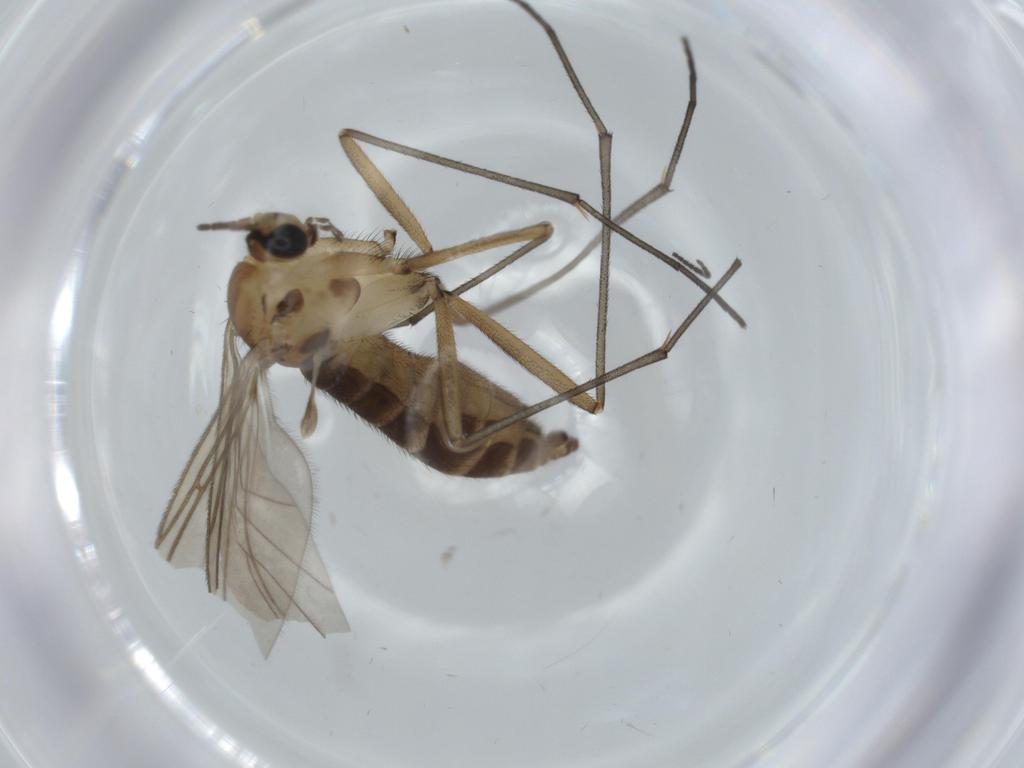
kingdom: Animalia
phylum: Arthropoda
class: Insecta
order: Diptera
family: Sciaridae
